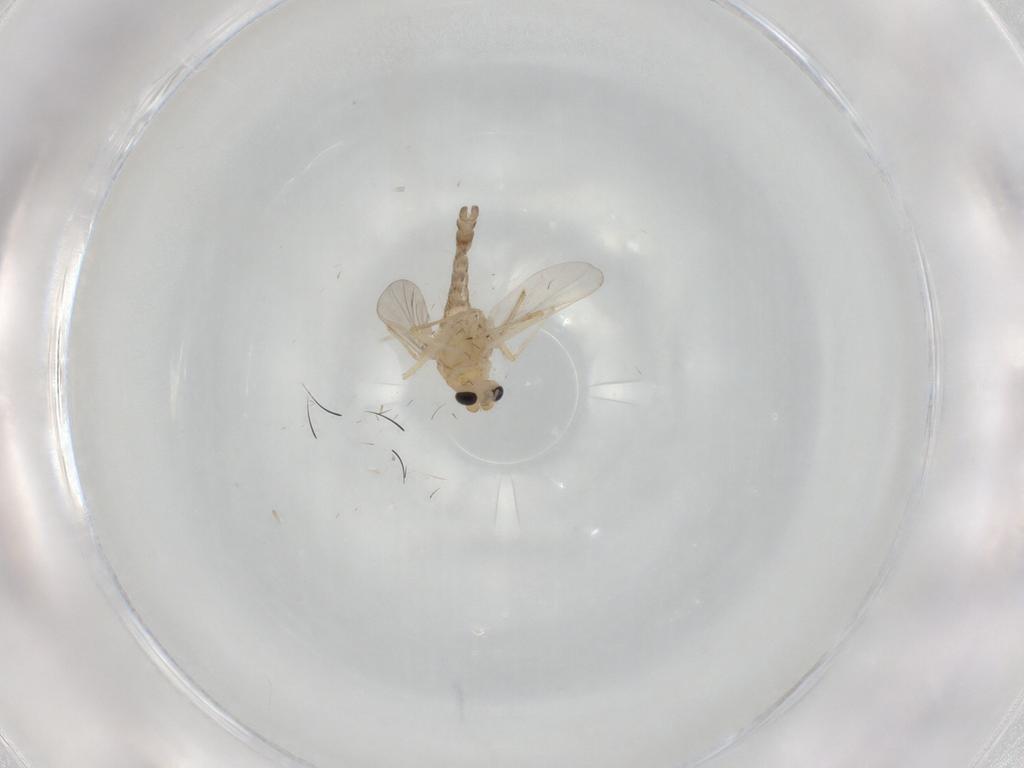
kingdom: Animalia
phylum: Arthropoda
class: Insecta
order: Diptera
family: Chironomidae
